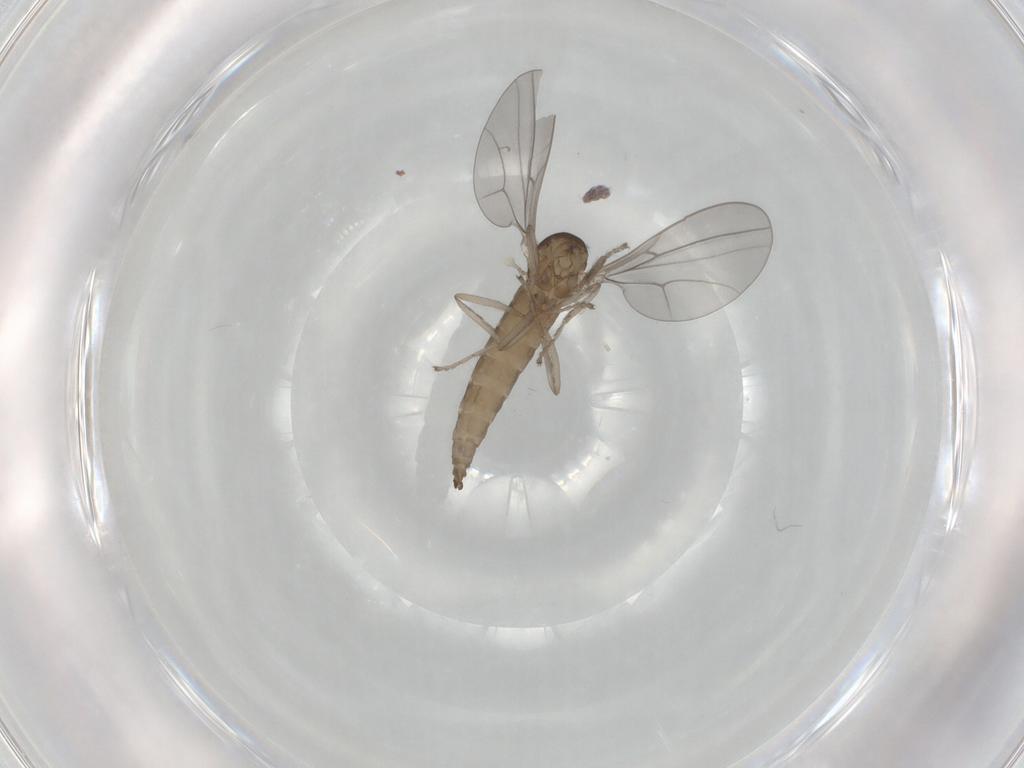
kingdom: Animalia
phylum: Arthropoda
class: Insecta
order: Diptera
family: Cecidomyiidae
